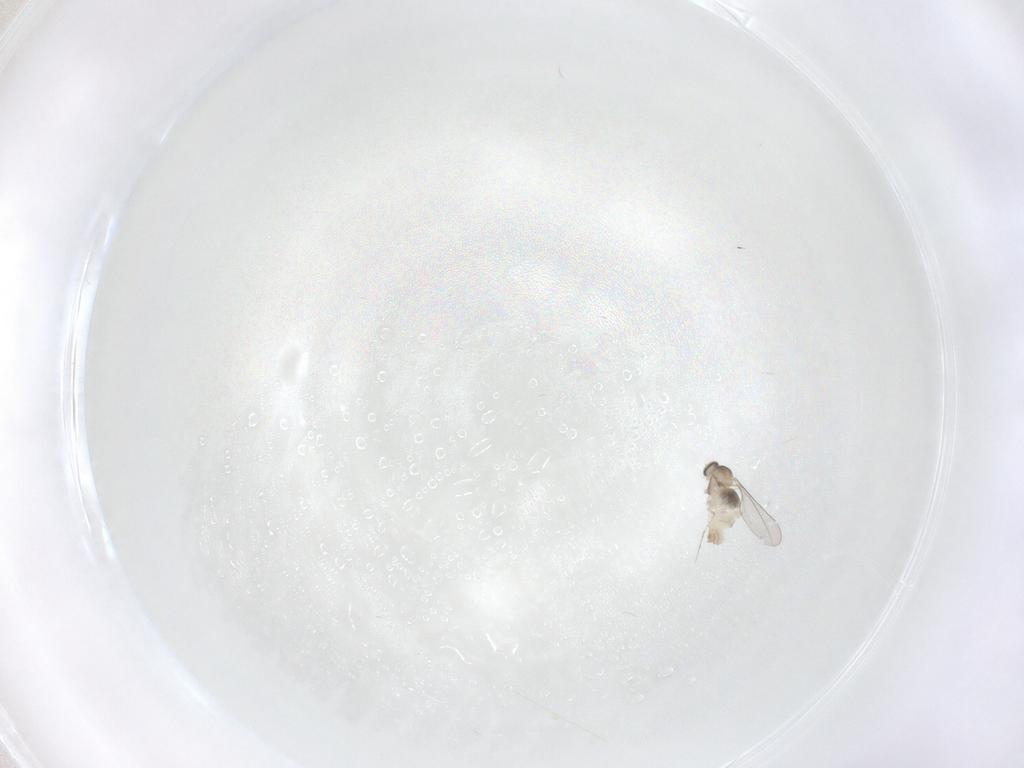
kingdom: Animalia
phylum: Arthropoda
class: Insecta
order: Diptera
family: Cecidomyiidae
